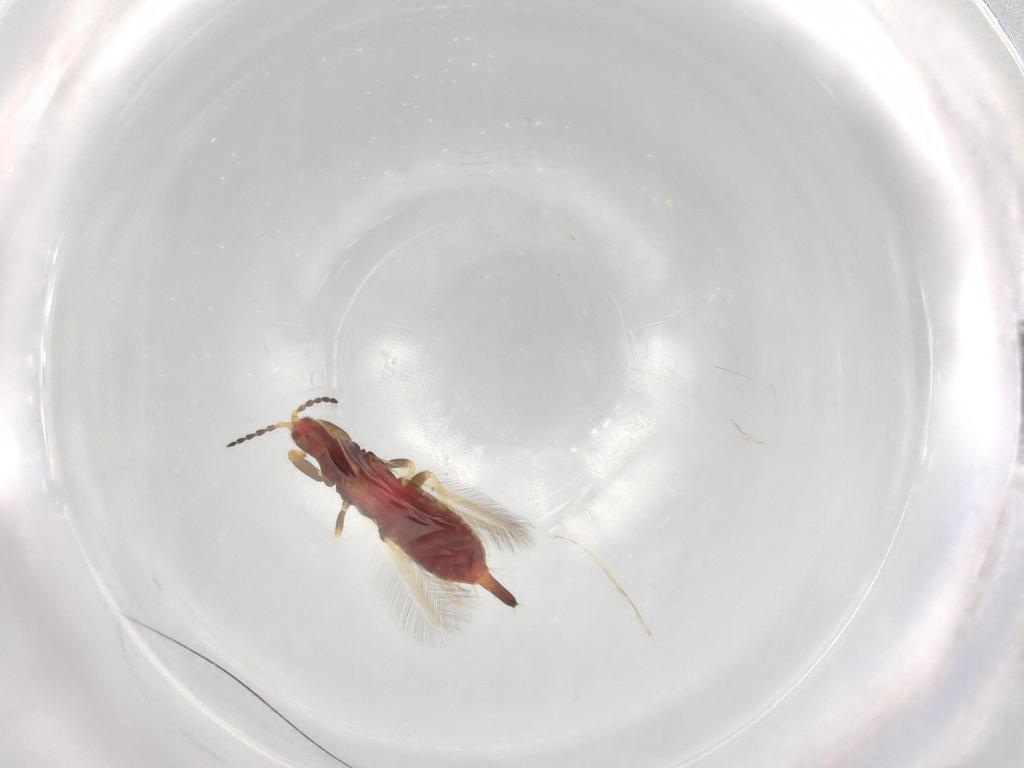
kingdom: Animalia
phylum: Arthropoda
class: Insecta
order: Thysanoptera
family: Phlaeothripidae
